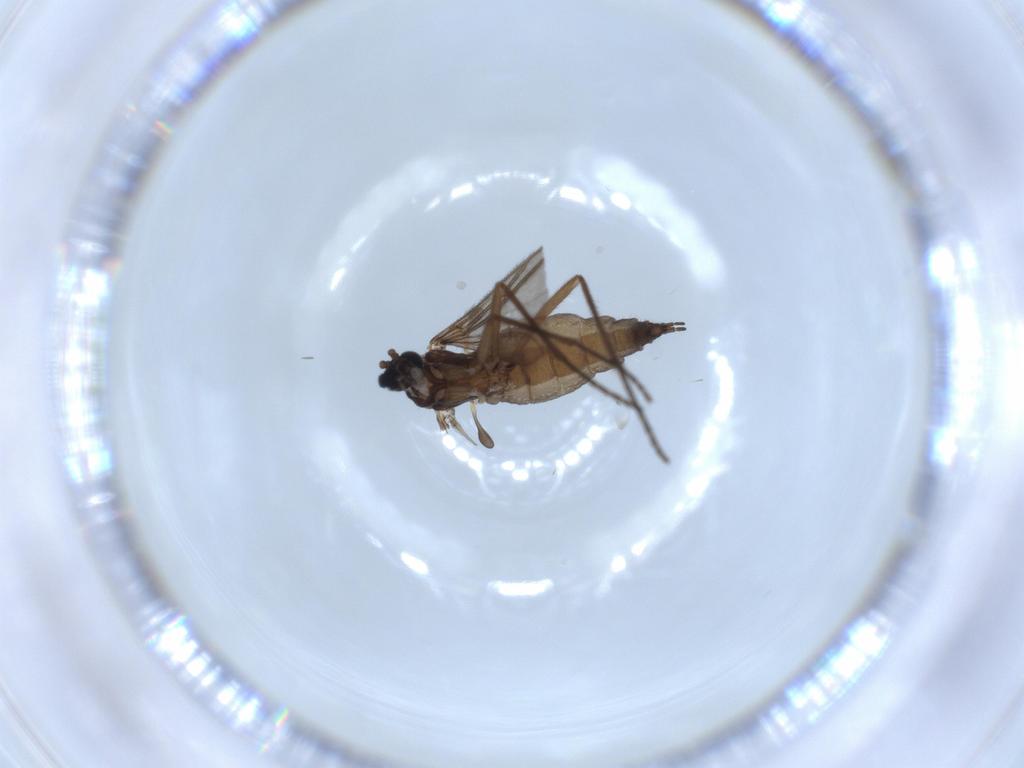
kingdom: Animalia
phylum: Arthropoda
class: Insecta
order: Diptera
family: Sciaridae
